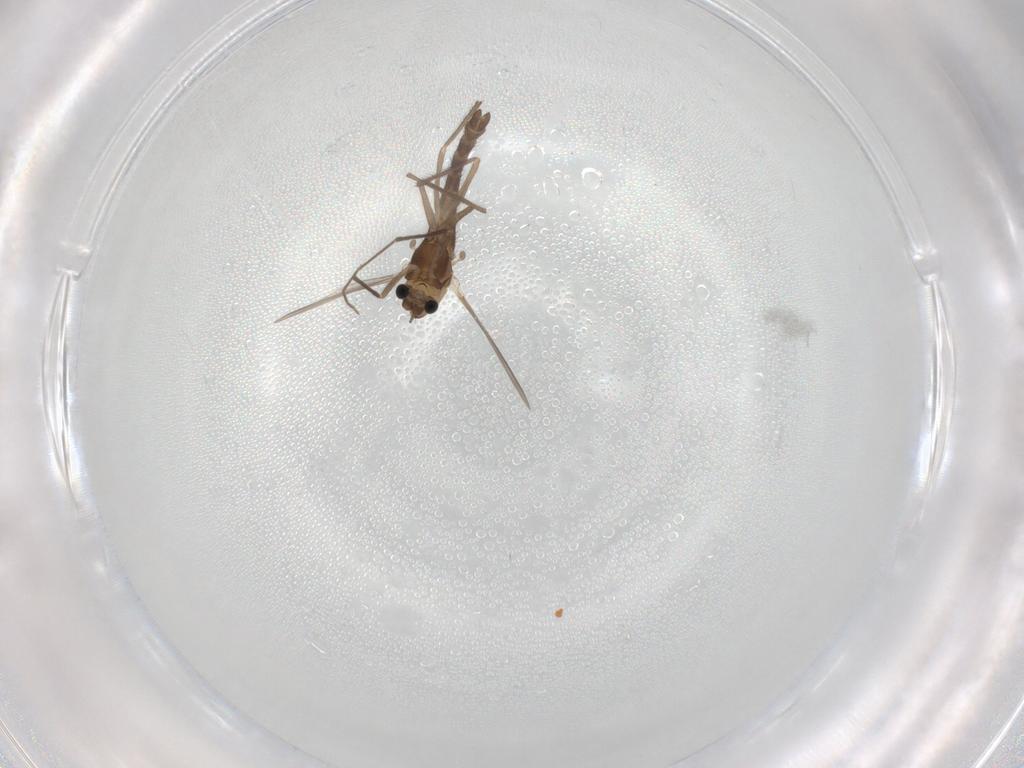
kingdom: Animalia
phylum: Arthropoda
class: Insecta
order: Diptera
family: Chironomidae
